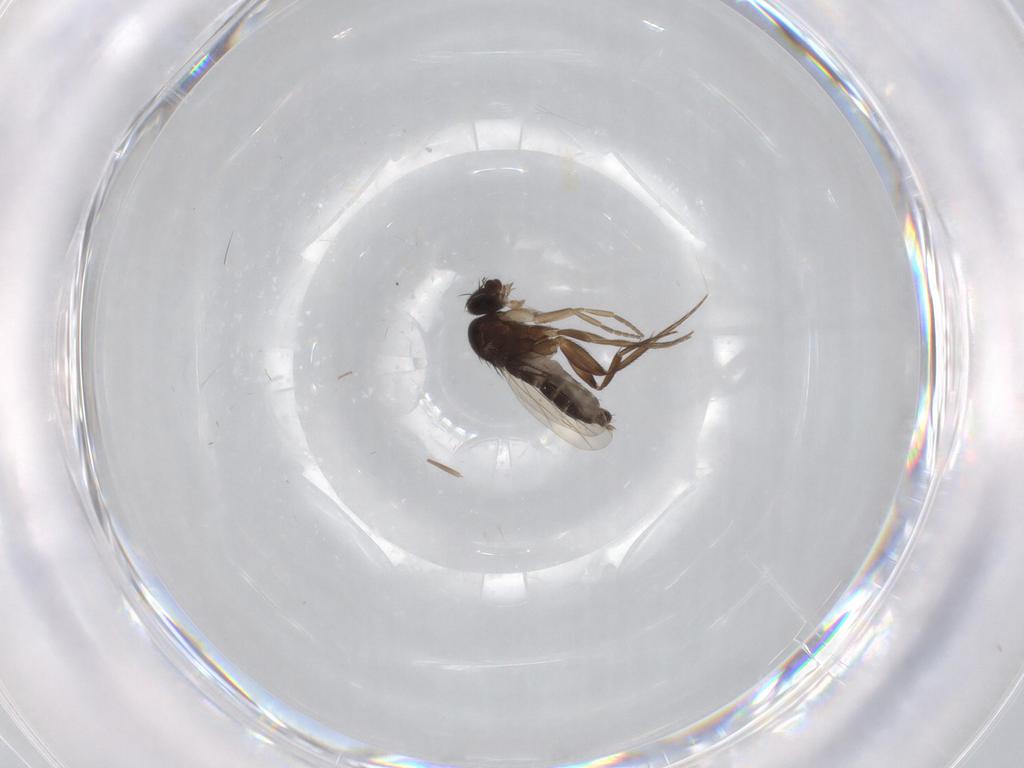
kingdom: Animalia
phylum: Arthropoda
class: Insecta
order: Diptera
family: Phoridae
